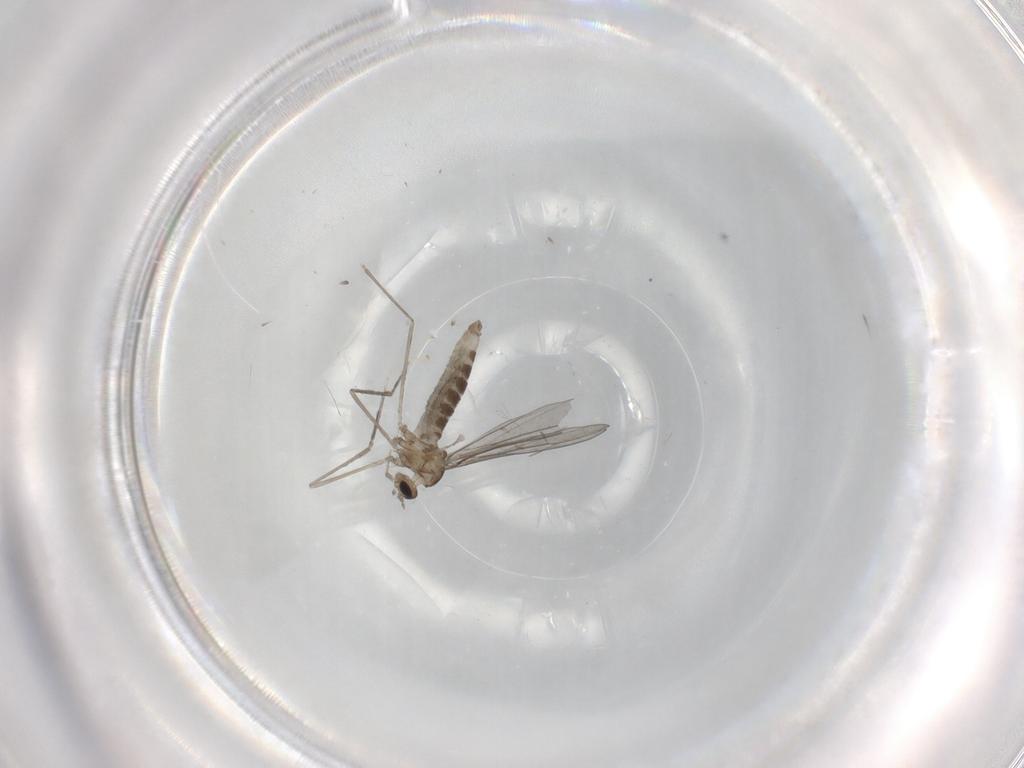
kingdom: Animalia
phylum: Arthropoda
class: Insecta
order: Diptera
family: Cecidomyiidae
